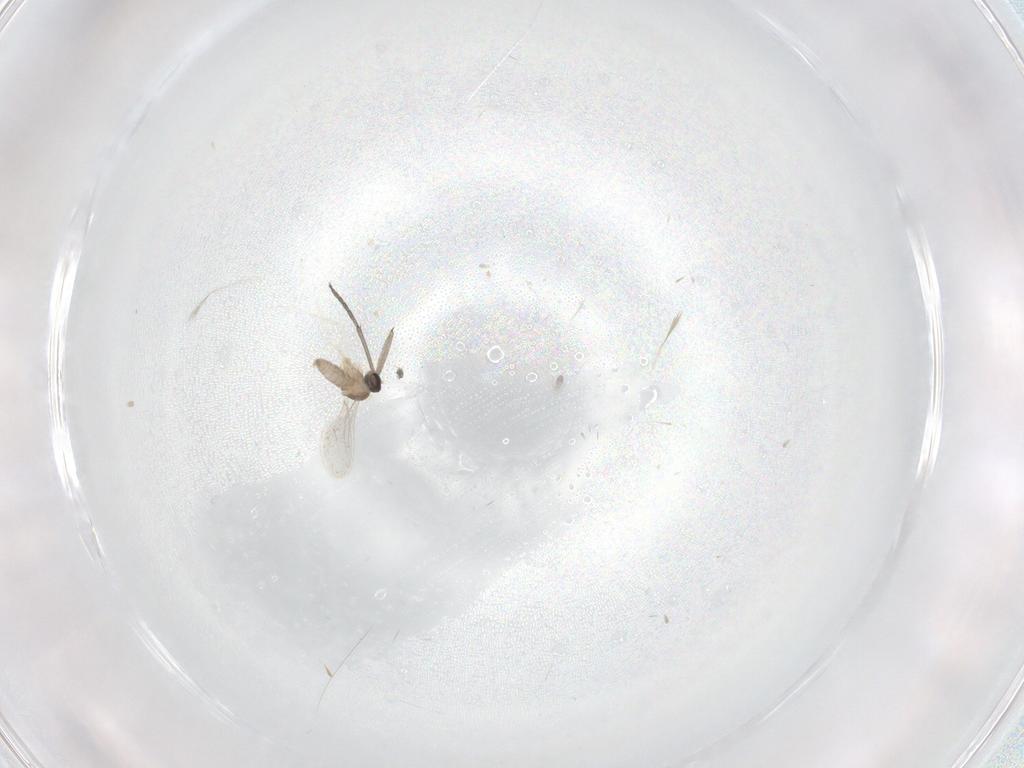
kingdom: Animalia
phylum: Arthropoda
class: Insecta
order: Diptera
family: Cecidomyiidae
